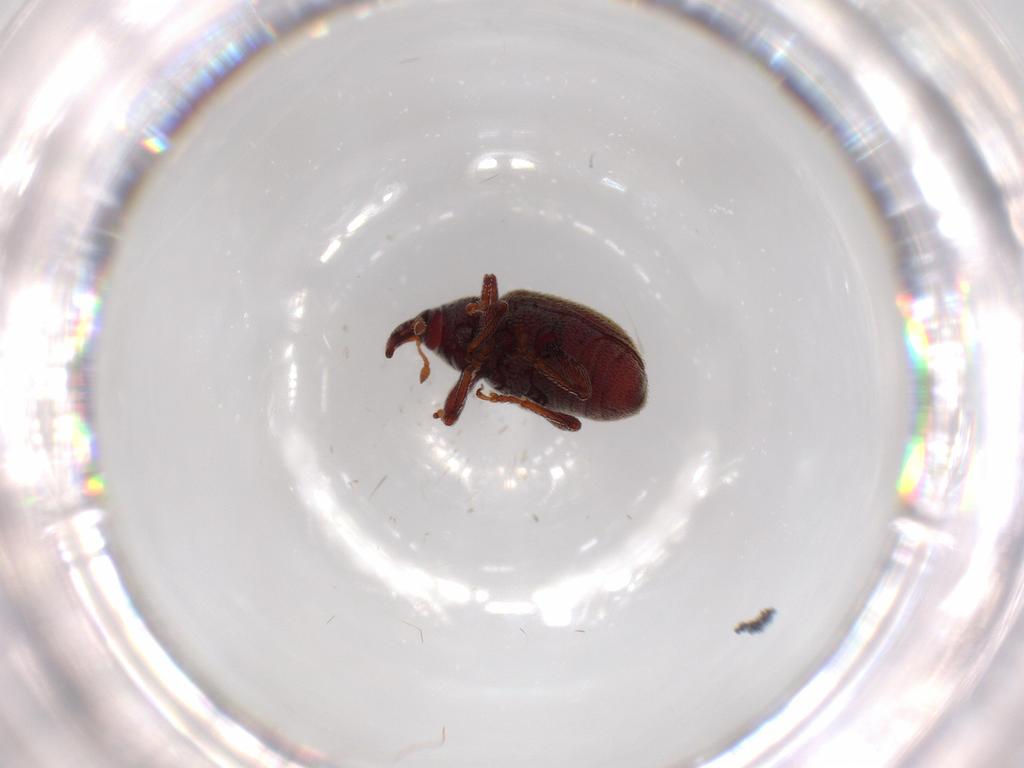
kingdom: Animalia
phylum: Arthropoda
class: Insecta
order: Coleoptera
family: Curculionidae
